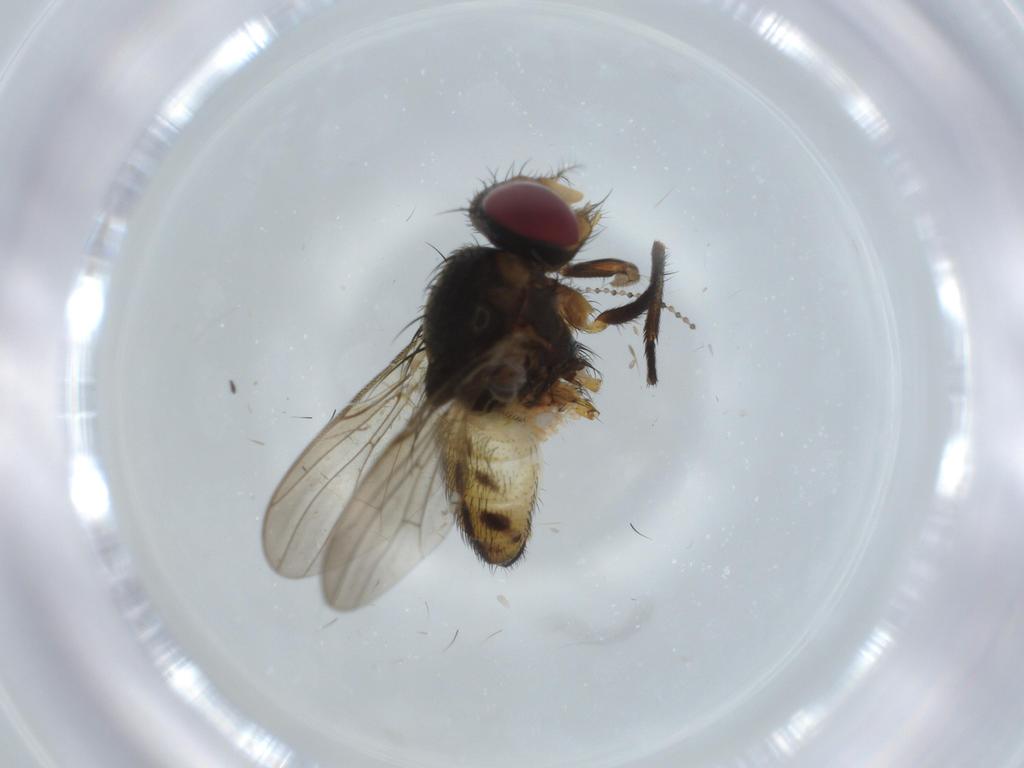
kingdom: Animalia
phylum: Arthropoda
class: Insecta
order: Diptera
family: Anthomyiidae
